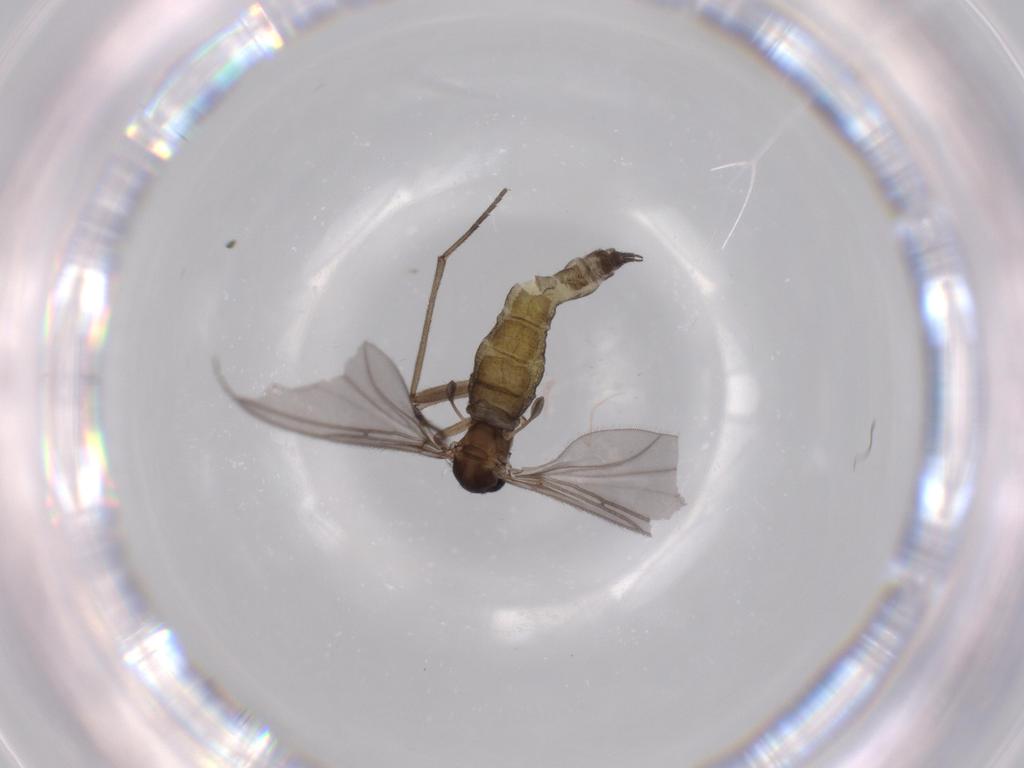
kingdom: Animalia
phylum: Arthropoda
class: Insecta
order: Diptera
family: Sciaridae
